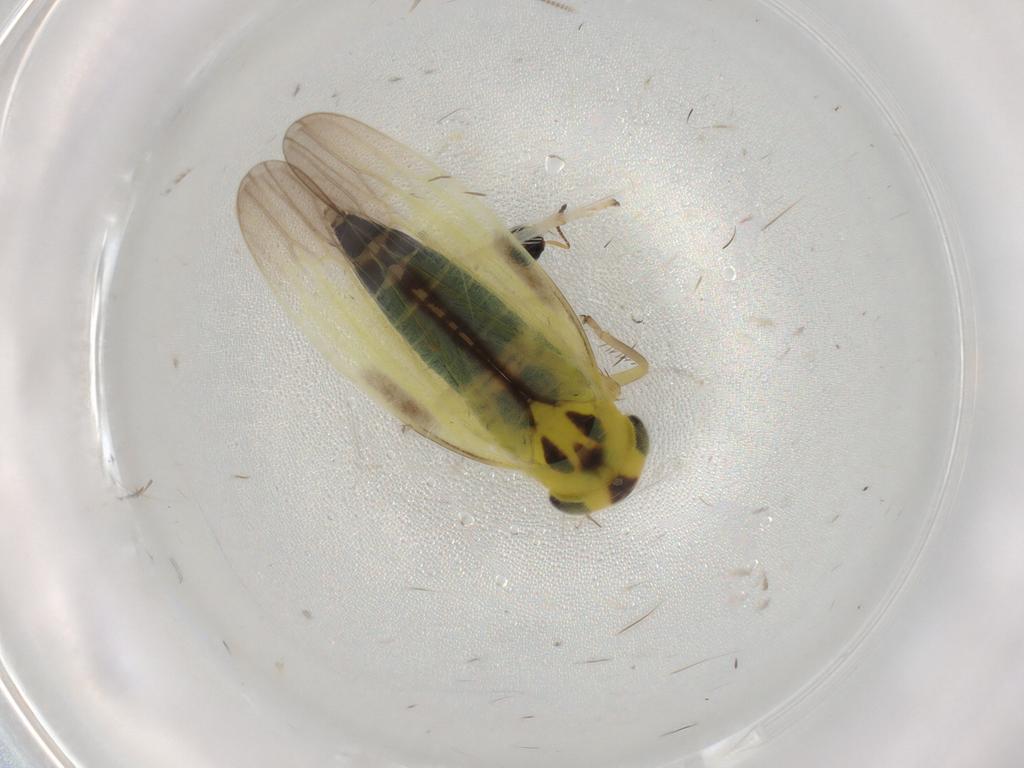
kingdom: Animalia
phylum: Arthropoda
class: Insecta
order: Hemiptera
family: Cicadellidae
